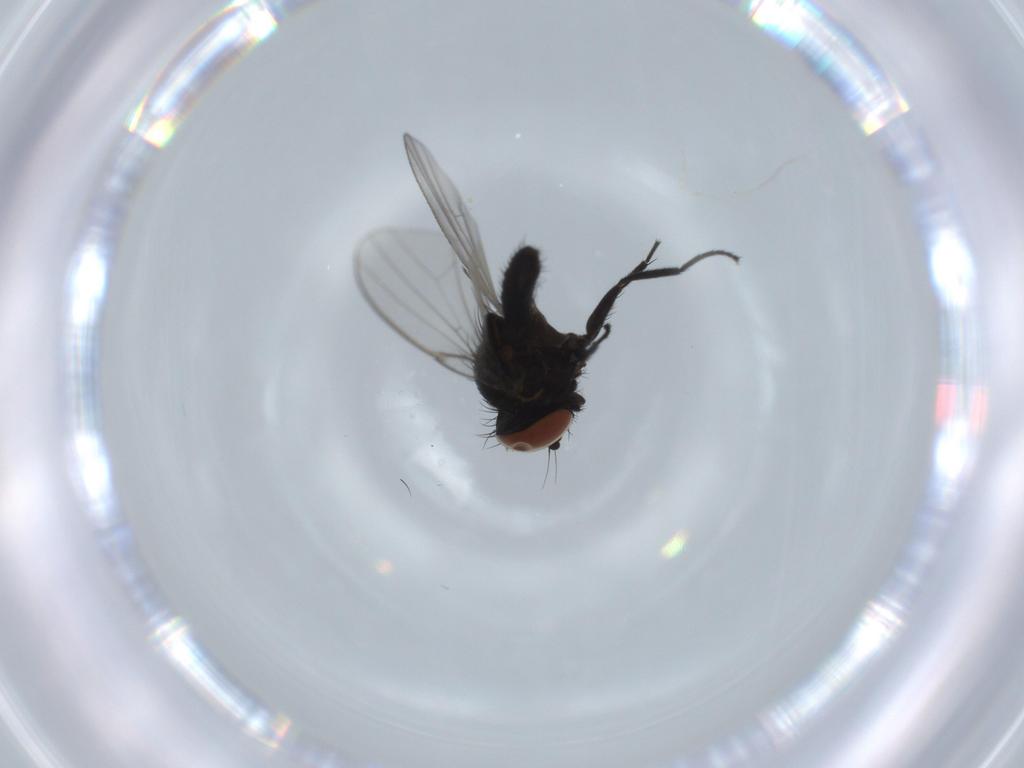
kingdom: Animalia
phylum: Arthropoda
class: Insecta
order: Diptera
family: Milichiidae
